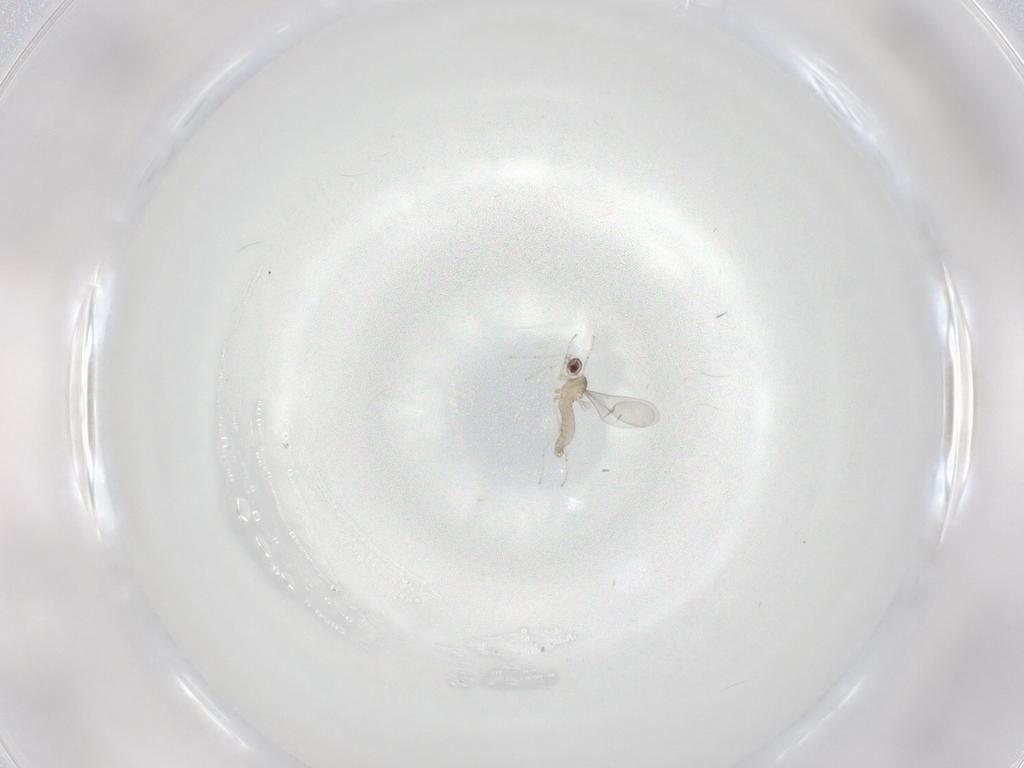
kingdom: Animalia
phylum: Arthropoda
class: Insecta
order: Diptera
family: Cecidomyiidae
